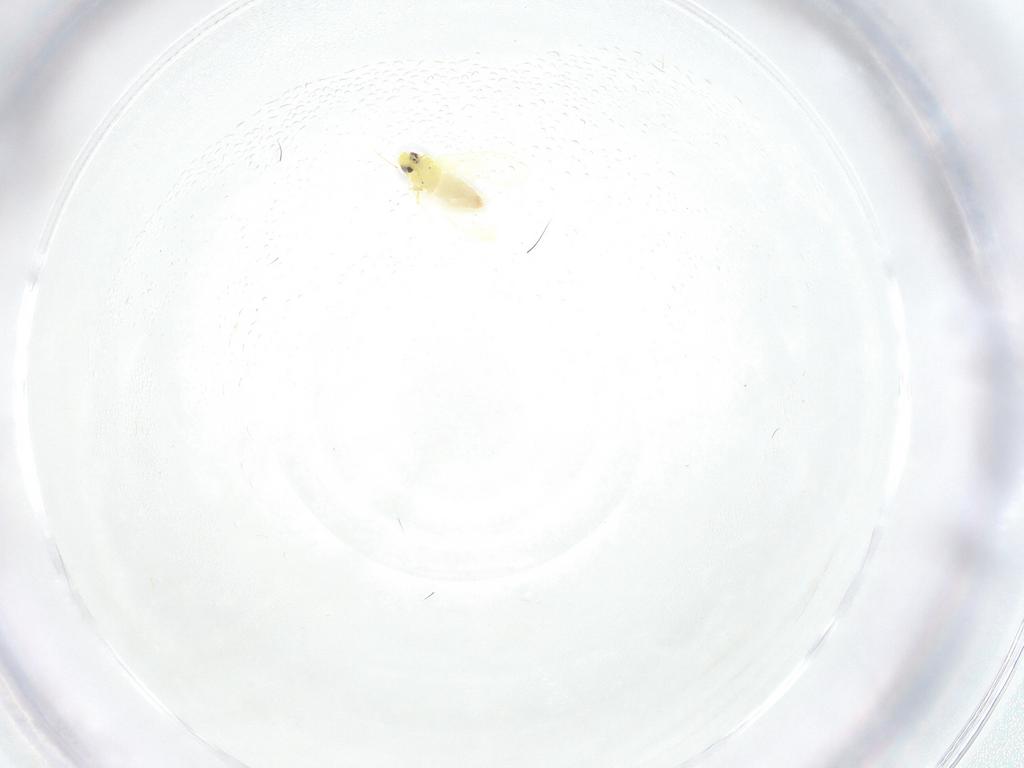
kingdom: Animalia
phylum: Arthropoda
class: Insecta
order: Hemiptera
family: Aleyrodidae
